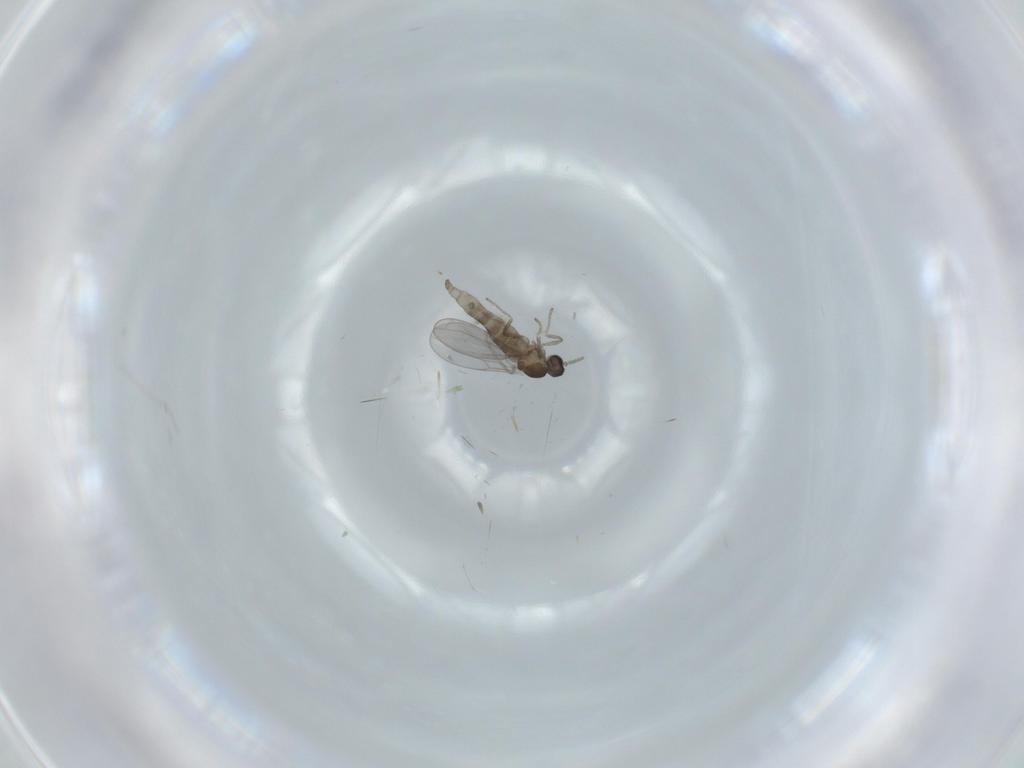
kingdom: Animalia
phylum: Arthropoda
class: Insecta
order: Diptera
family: Cecidomyiidae
